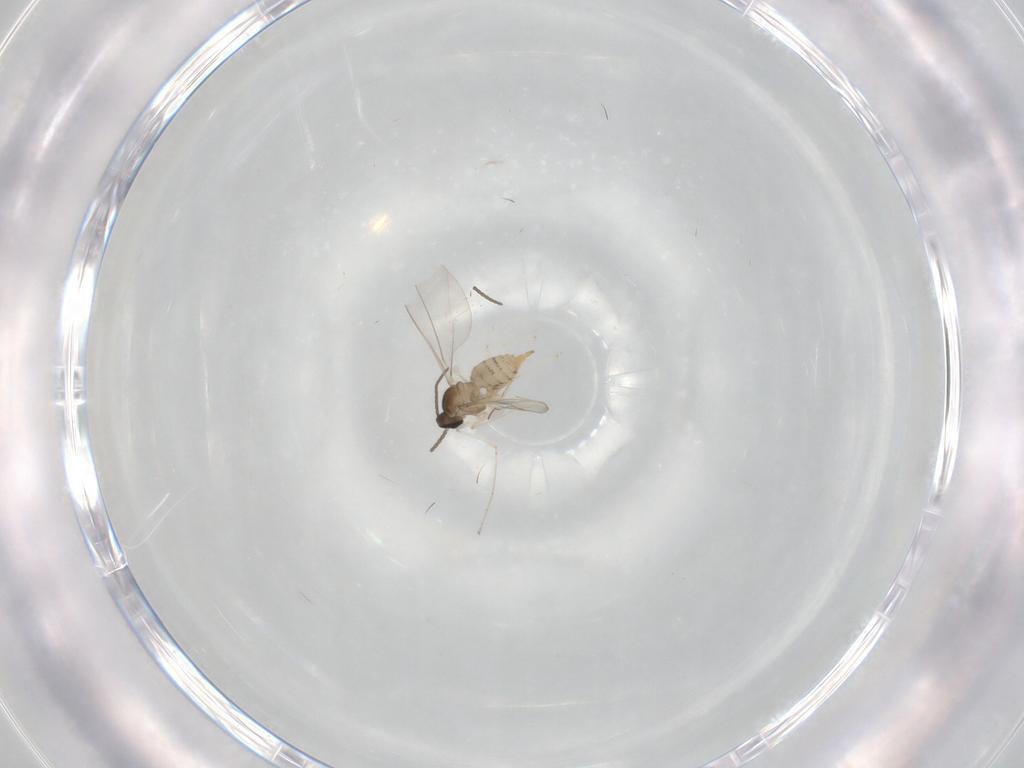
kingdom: Animalia
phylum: Arthropoda
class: Insecta
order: Diptera
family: Cecidomyiidae
